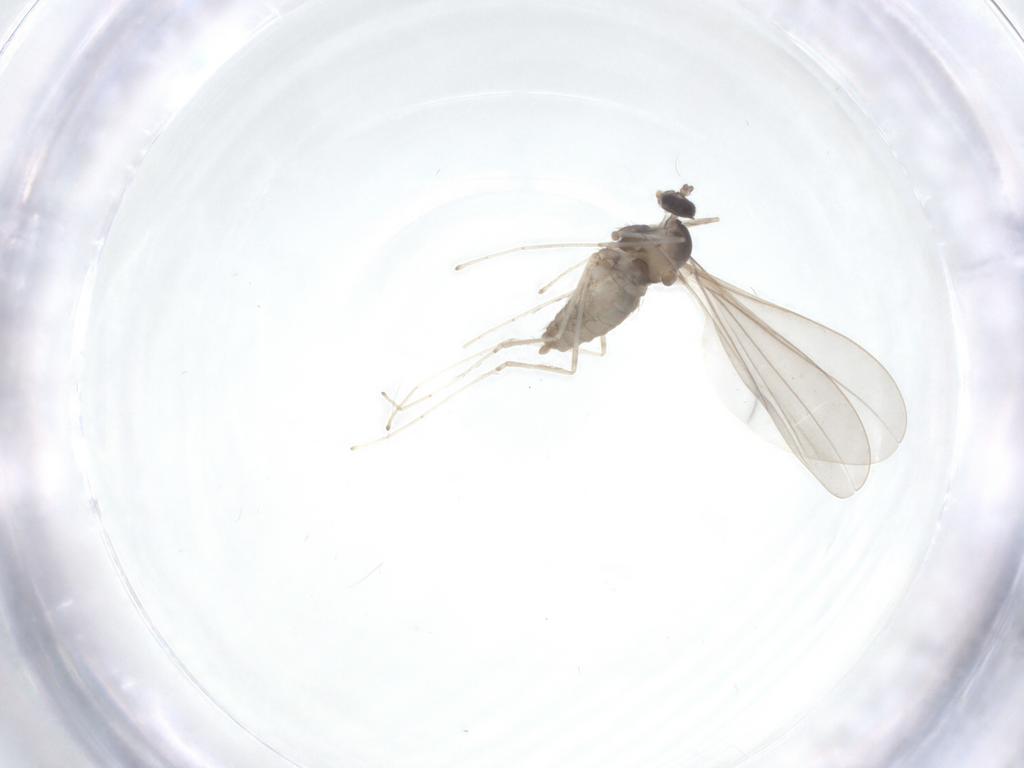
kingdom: Animalia
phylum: Arthropoda
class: Insecta
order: Diptera
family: Cecidomyiidae
